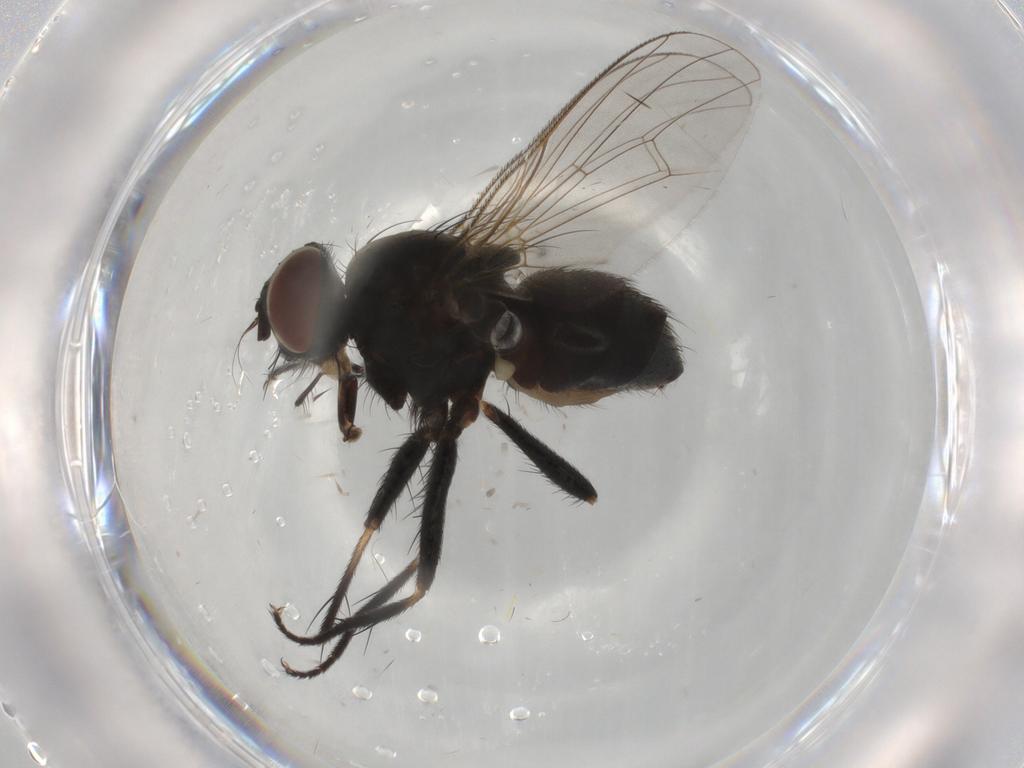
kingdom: Animalia
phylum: Arthropoda
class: Insecta
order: Diptera
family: Muscidae
